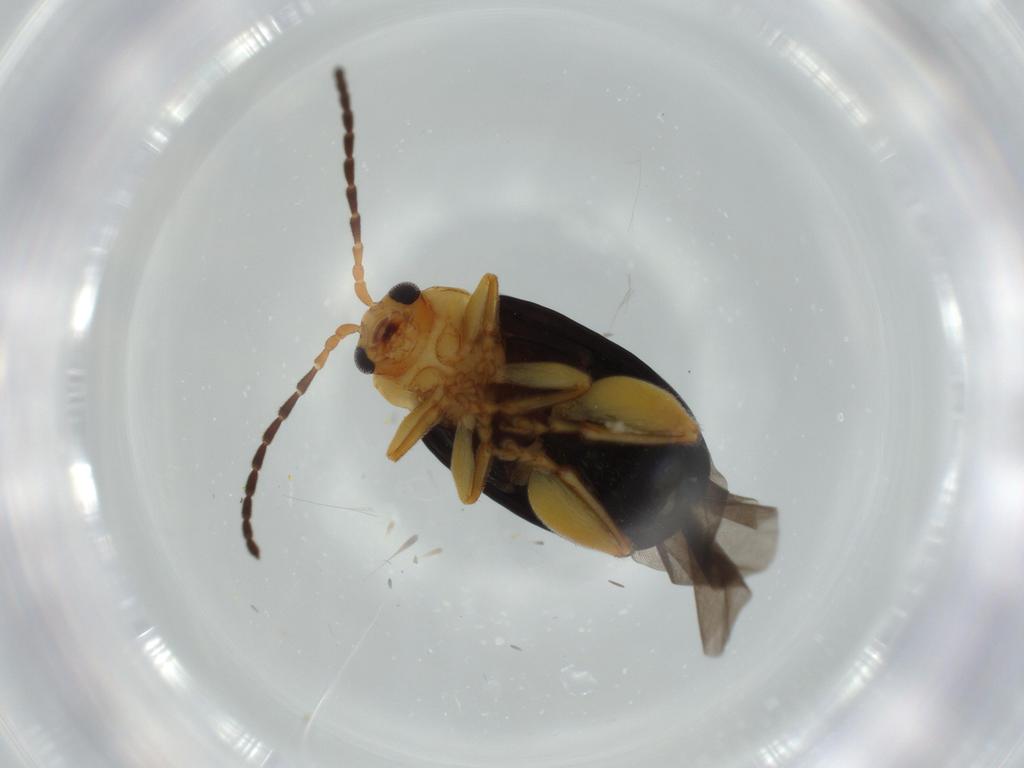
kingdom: Animalia
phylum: Arthropoda
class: Insecta
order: Coleoptera
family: Chrysomelidae
